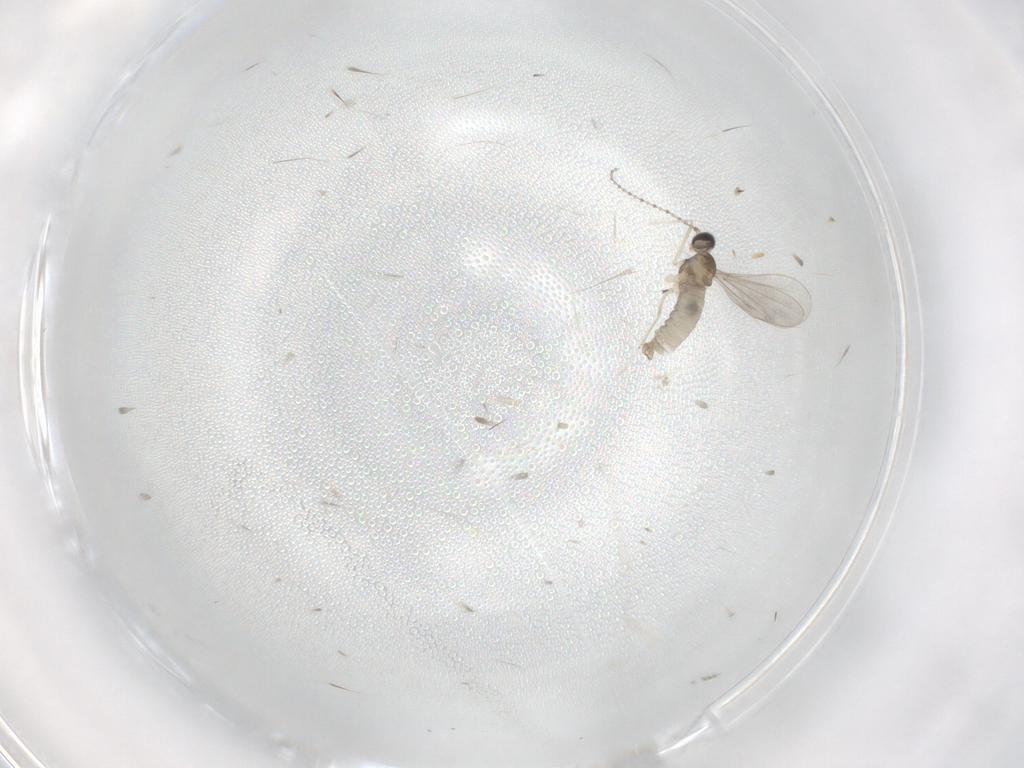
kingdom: Animalia
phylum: Arthropoda
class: Insecta
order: Diptera
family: Cecidomyiidae
